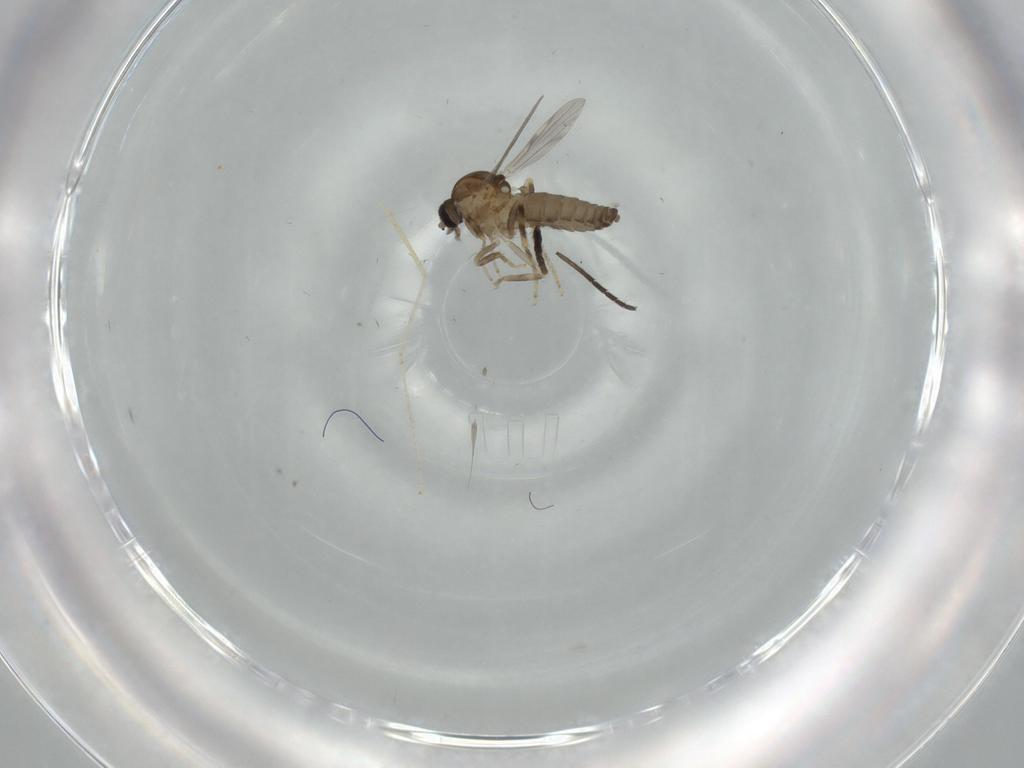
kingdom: Animalia
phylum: Arthropoda
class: Insecta
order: Diptera
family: Ceratopogonidae
